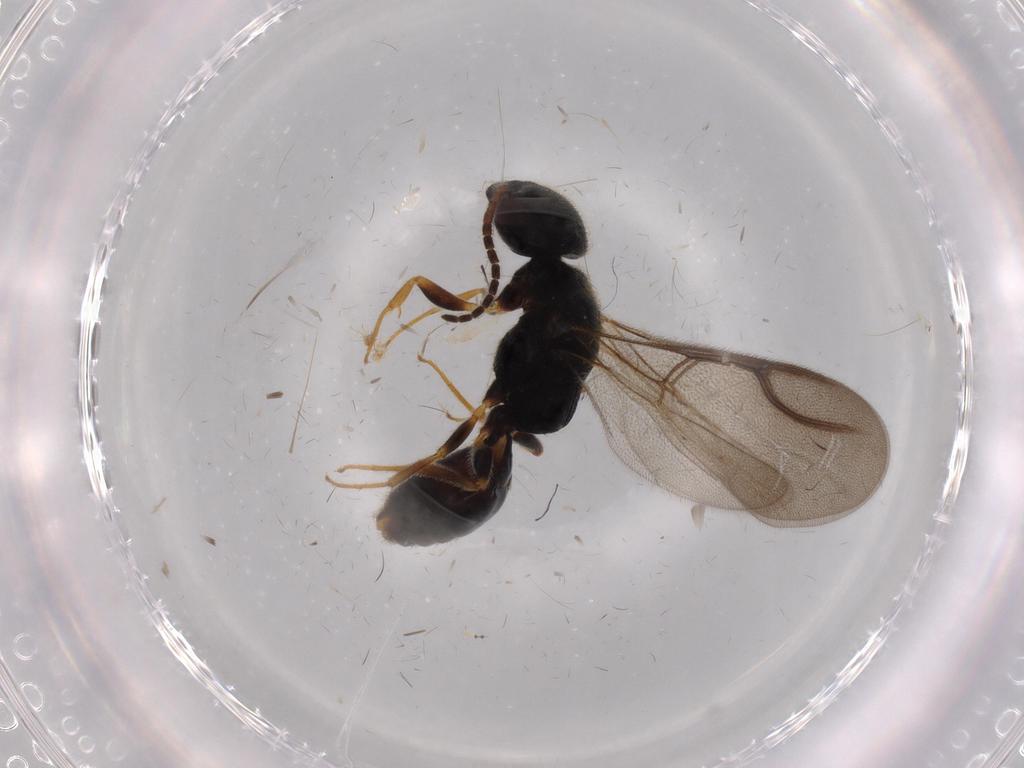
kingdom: Animalia
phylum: Arthropoda
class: Insecta
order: Hymenoptera
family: Bethylidae
